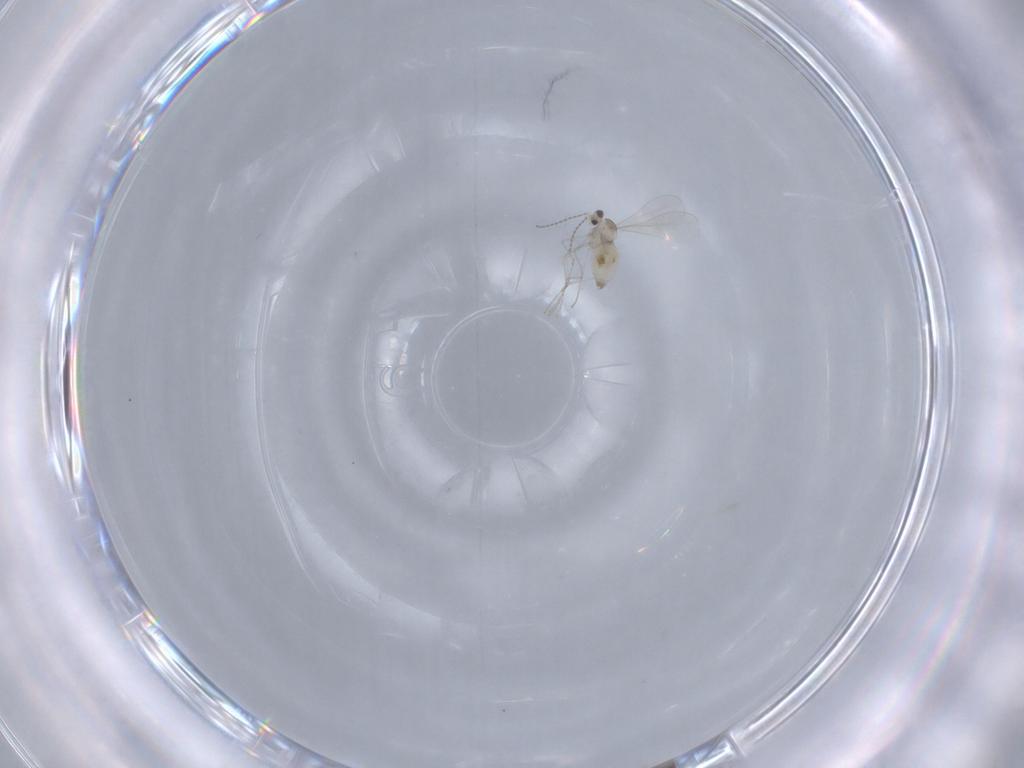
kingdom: Animalia
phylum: Arthropoda
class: Insecta
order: Diptera
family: Cecidomyiidae
